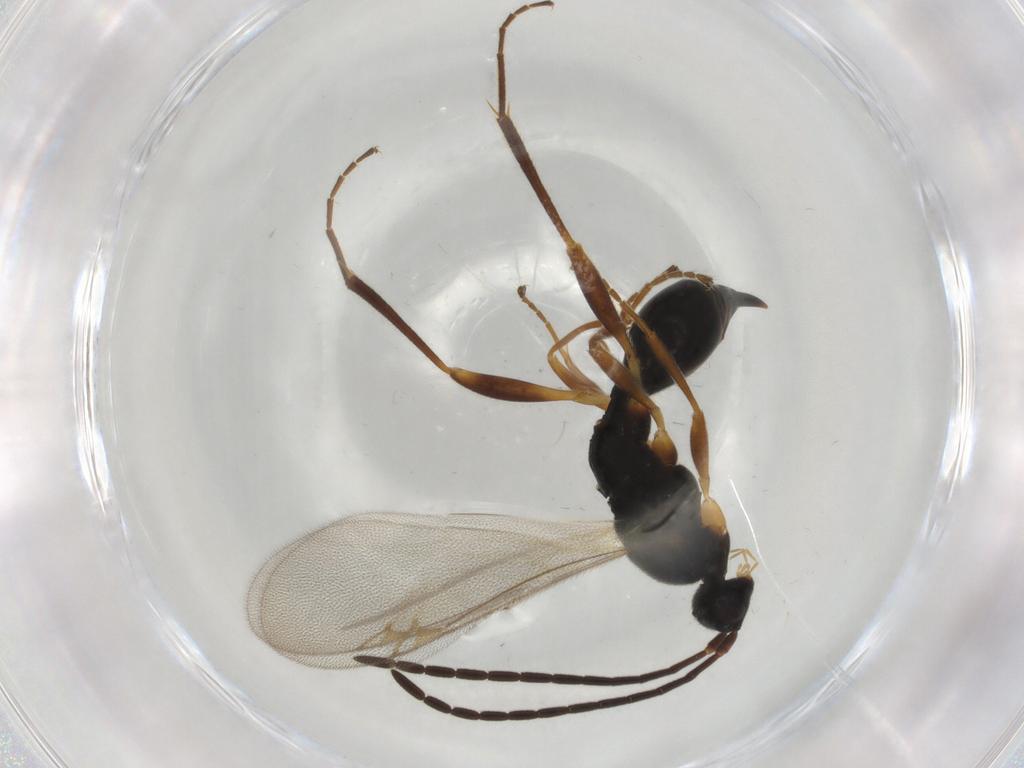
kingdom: Animalia
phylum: Arthropoda
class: Insecta
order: Hymenoptera
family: Proctotrupidae
